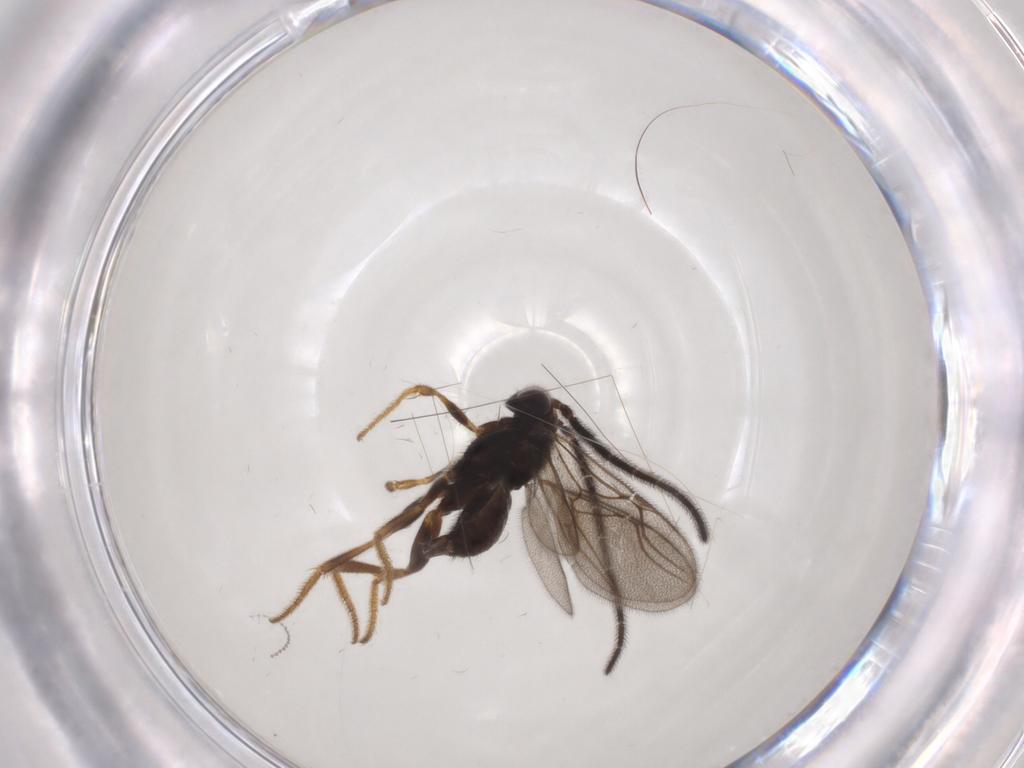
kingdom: Animalia
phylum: Arthropoda
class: Insecta
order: Hymenoptera
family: Dryinidae
